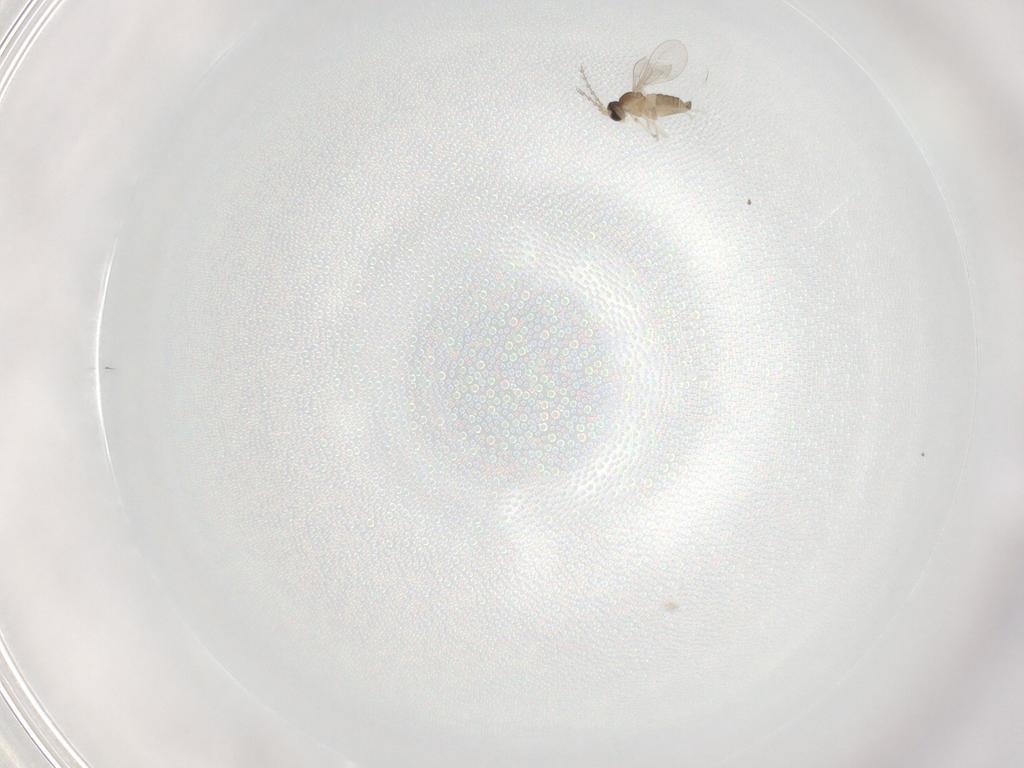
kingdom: Animalia
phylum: Arthropoda
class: Insecta
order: Diptera
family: Cecidomyiidae
